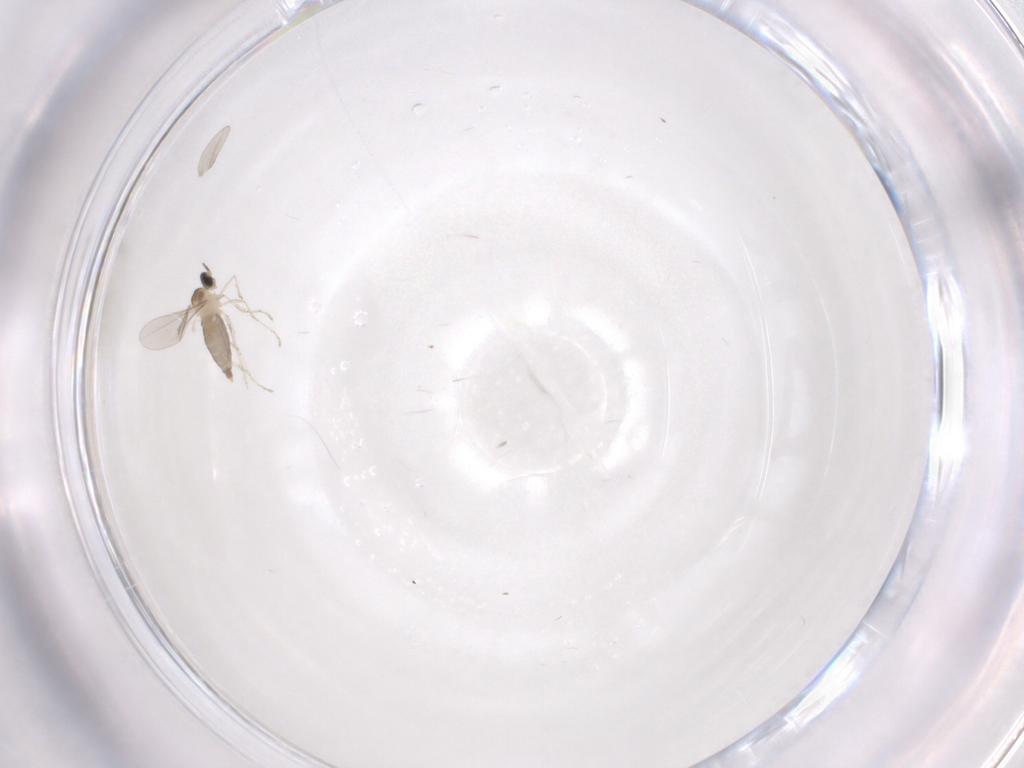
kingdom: Animalia
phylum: Arthropoda
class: Insecta
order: Diptera
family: Cecidomyiidae
